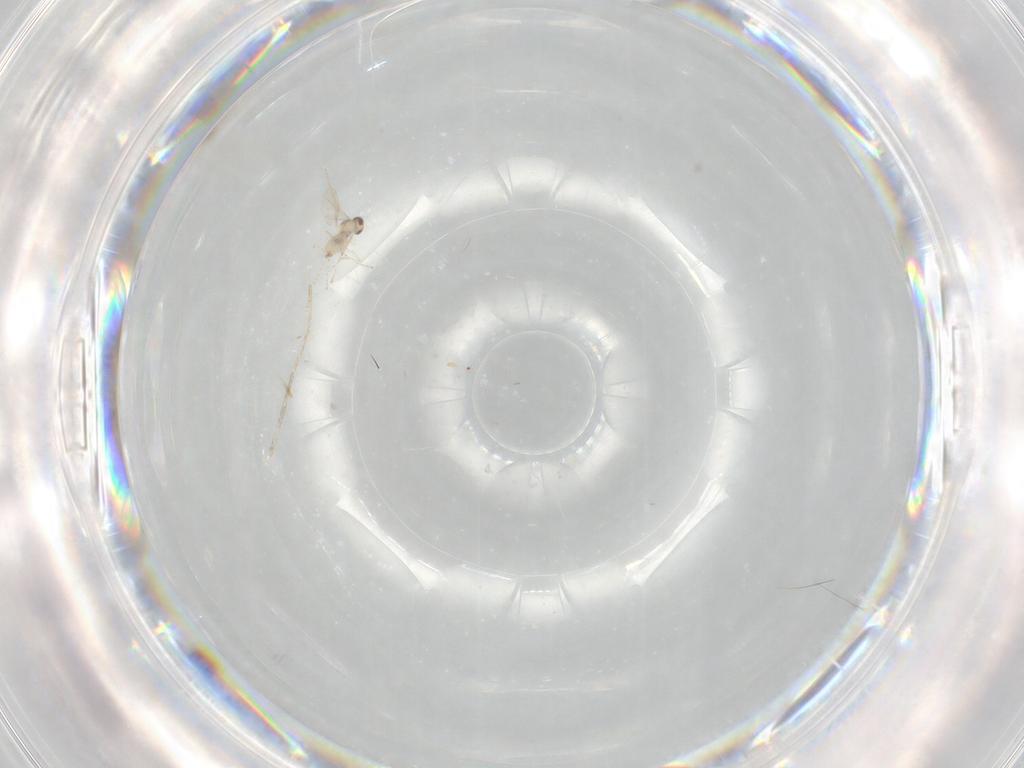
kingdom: Animalia
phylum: Arthropoda
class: Insecta
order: Diptera
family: Cecidomyiidae
